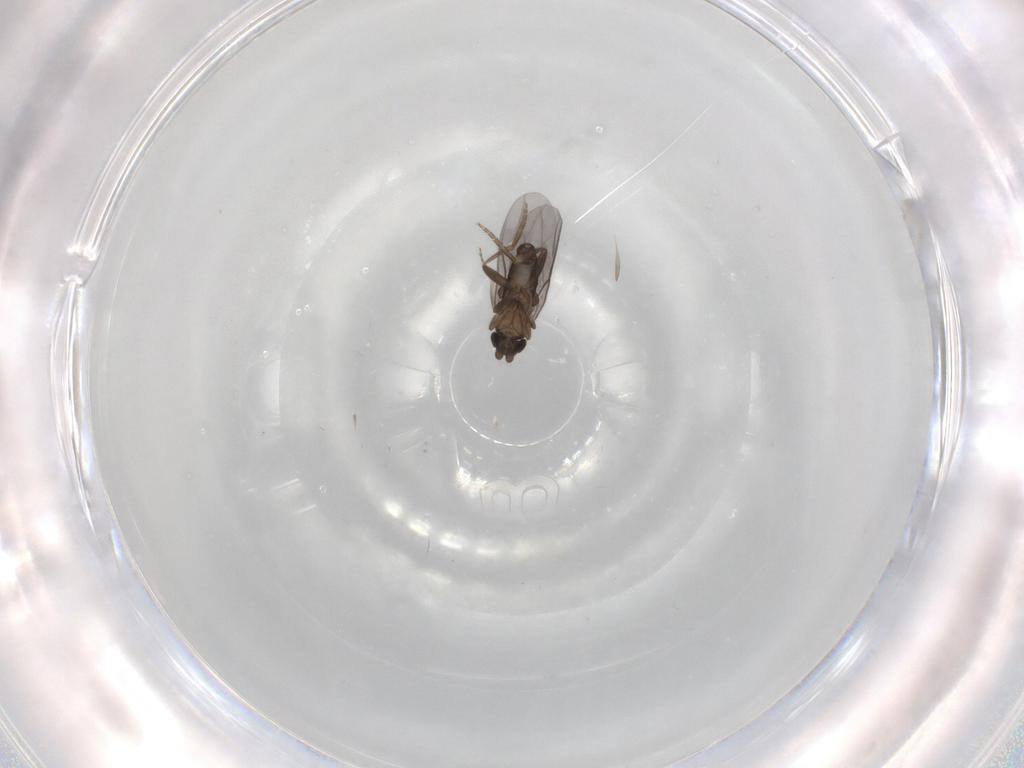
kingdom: Animalia
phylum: Arthropoda
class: Insecta
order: Diptera
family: Phoridae
